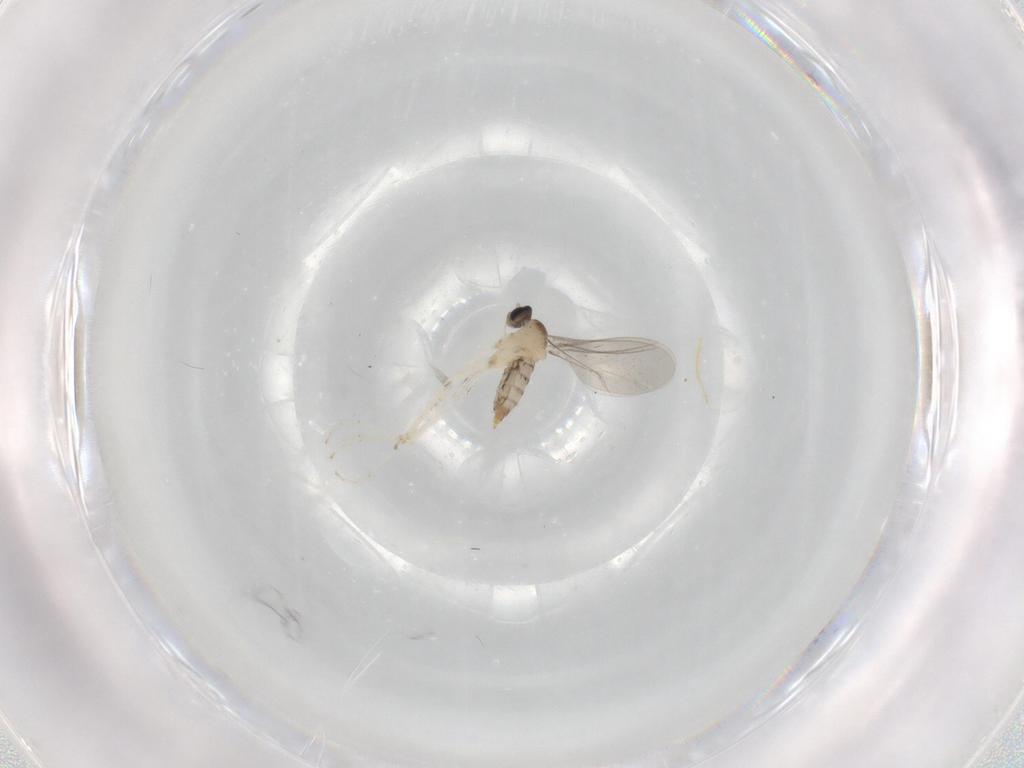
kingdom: Animalia
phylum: Arthropoda
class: Insecta
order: Diptera
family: Cecidomyiidae
